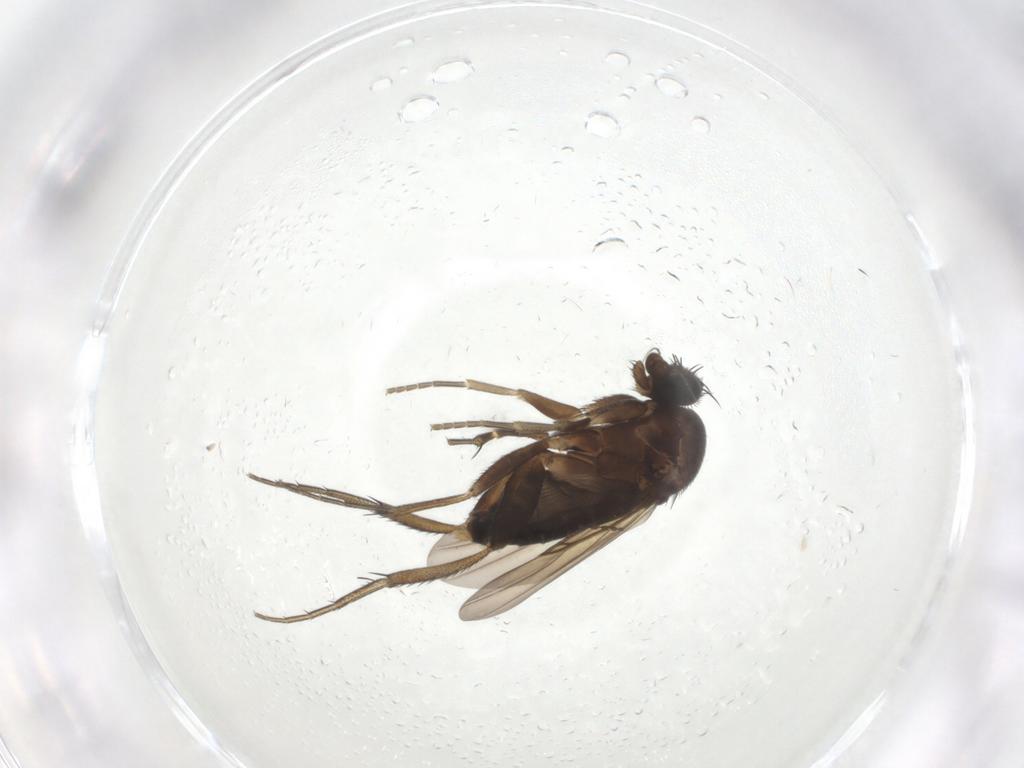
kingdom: Animalia
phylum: Arthropoda
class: Insecta
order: Diptera
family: Phoridae
